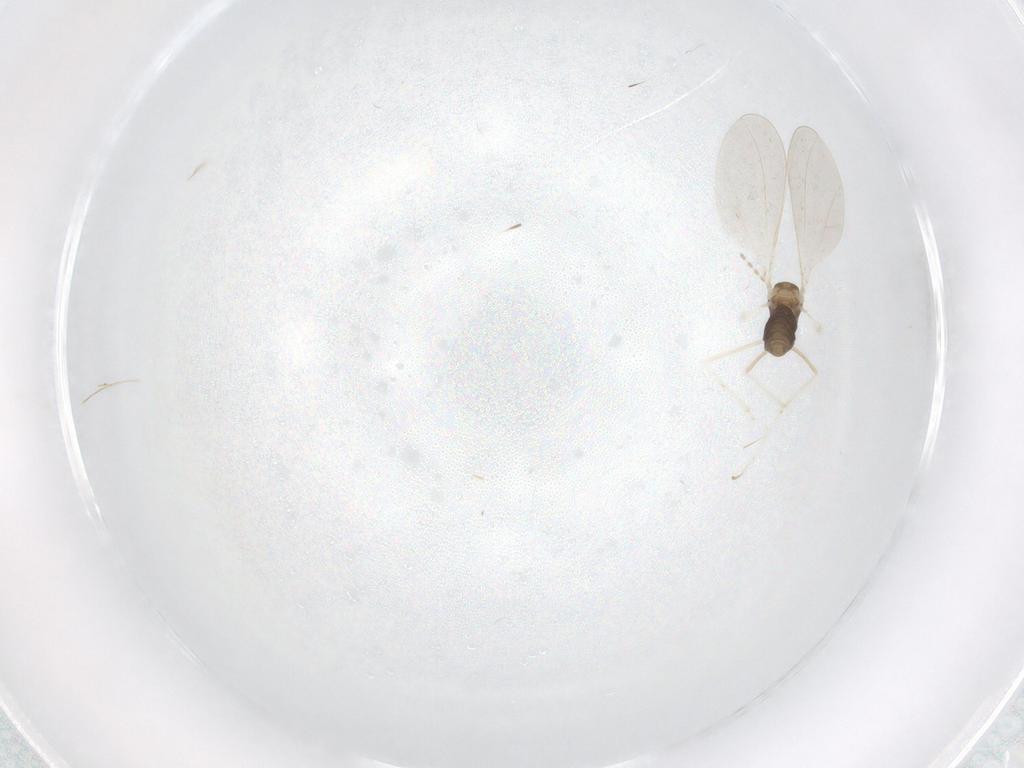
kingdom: Animalia
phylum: Arthropoda
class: Insecta
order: Diptera
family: Cecidomyiidae
